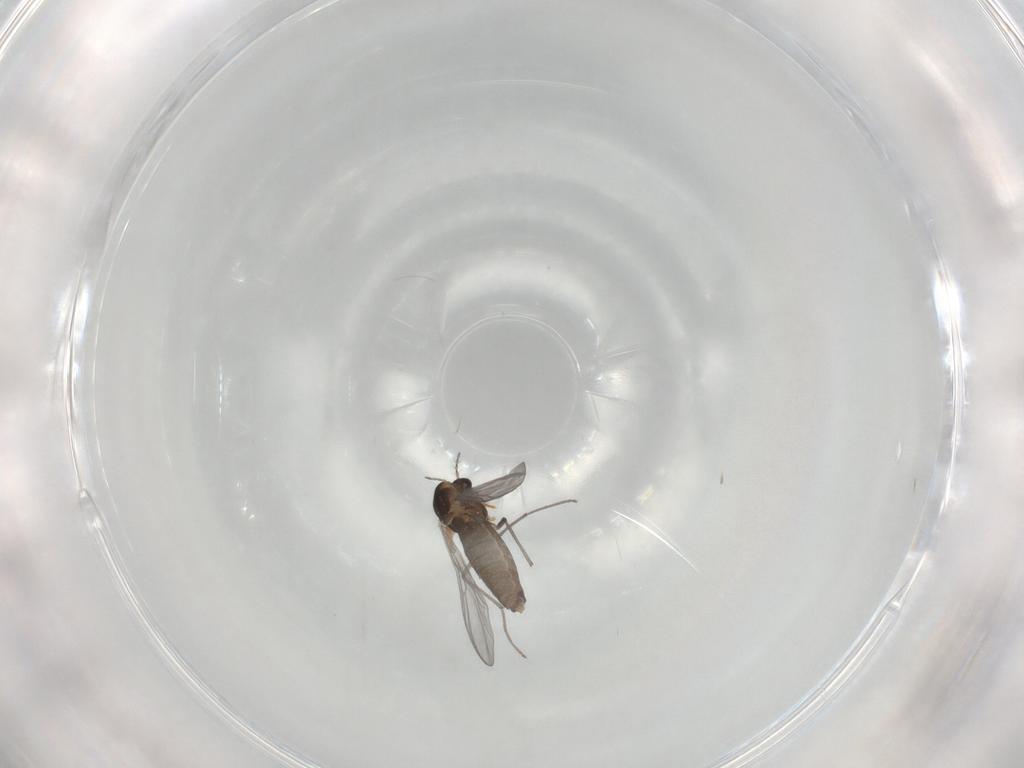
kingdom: Animalia
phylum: Arthropoda
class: Insecta
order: Diptera
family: Chironomidae
